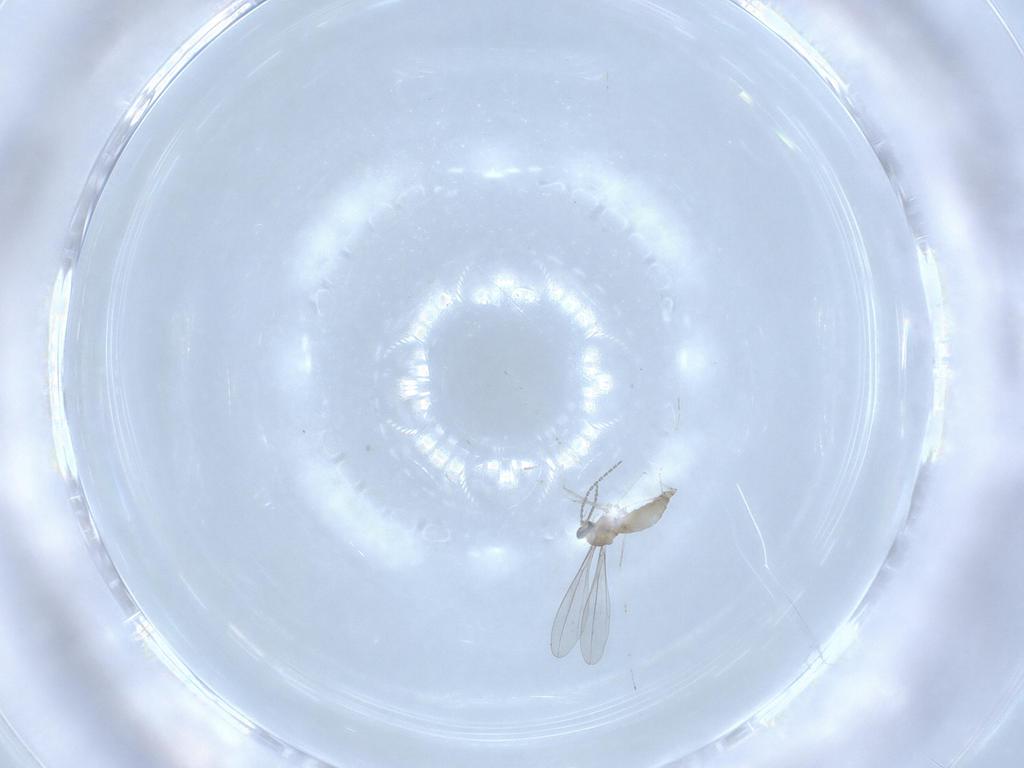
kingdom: Animalia
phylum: Arthropoda
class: Insecta
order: Diptera
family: Cecidomyiidae
